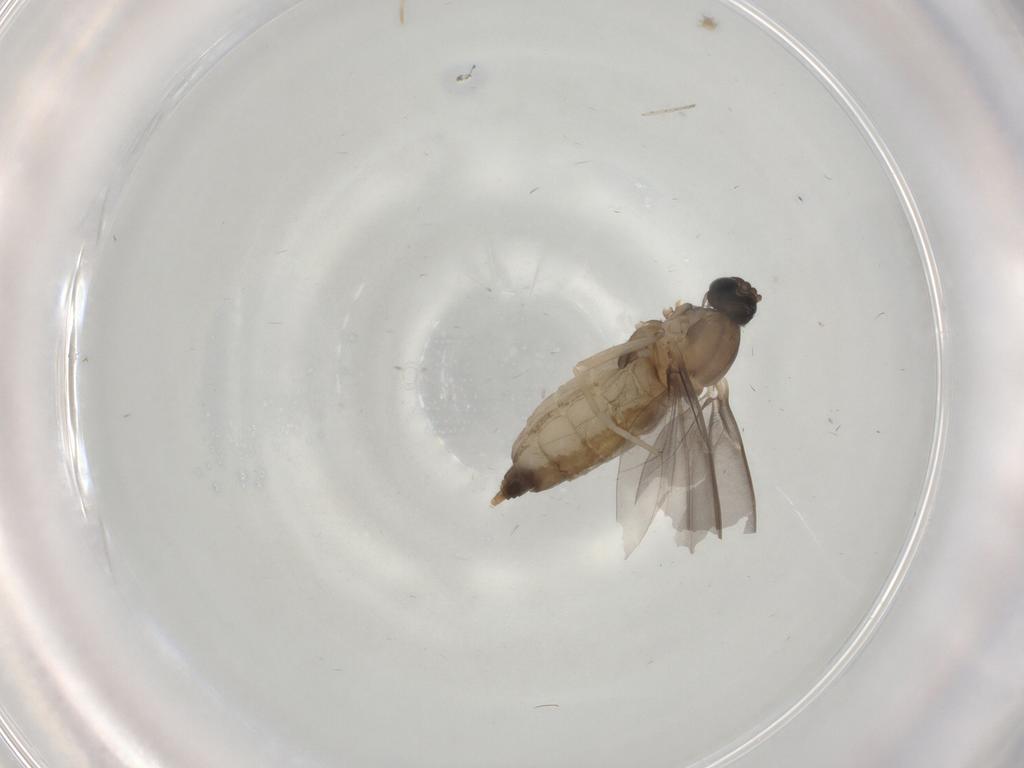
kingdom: Animalia
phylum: Arthropoda
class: Insecta
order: Diptera
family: Cecidomyiidae
